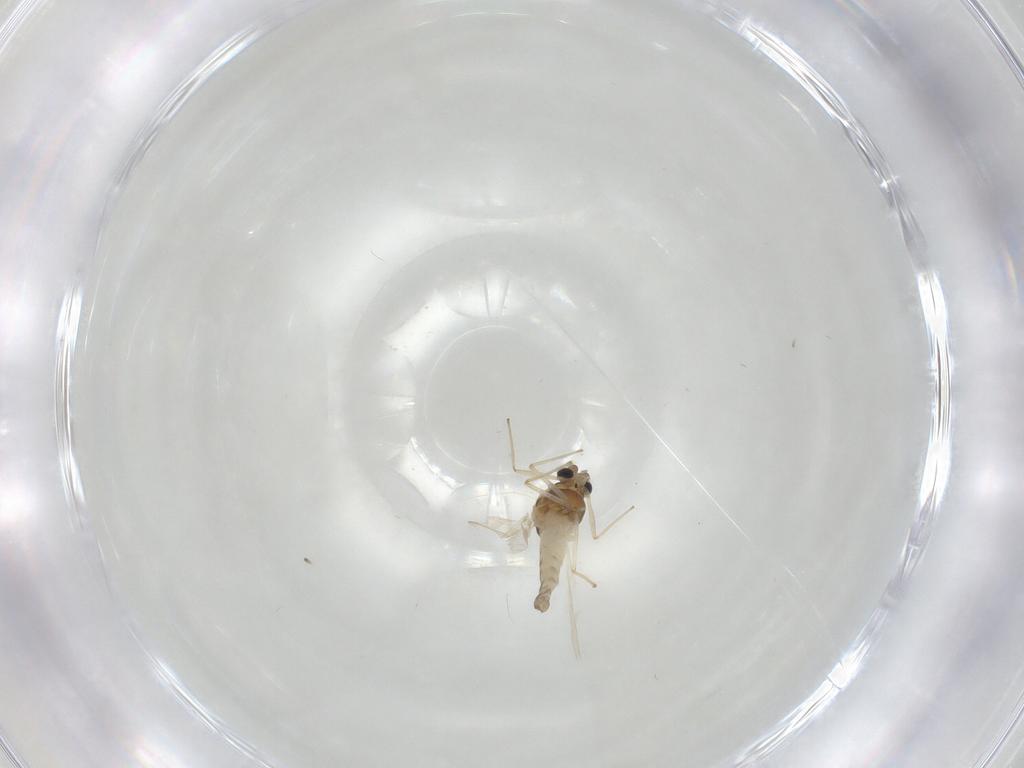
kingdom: Animalia
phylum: Arthropoda
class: Insecta
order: Diptera
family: Chironomidae
